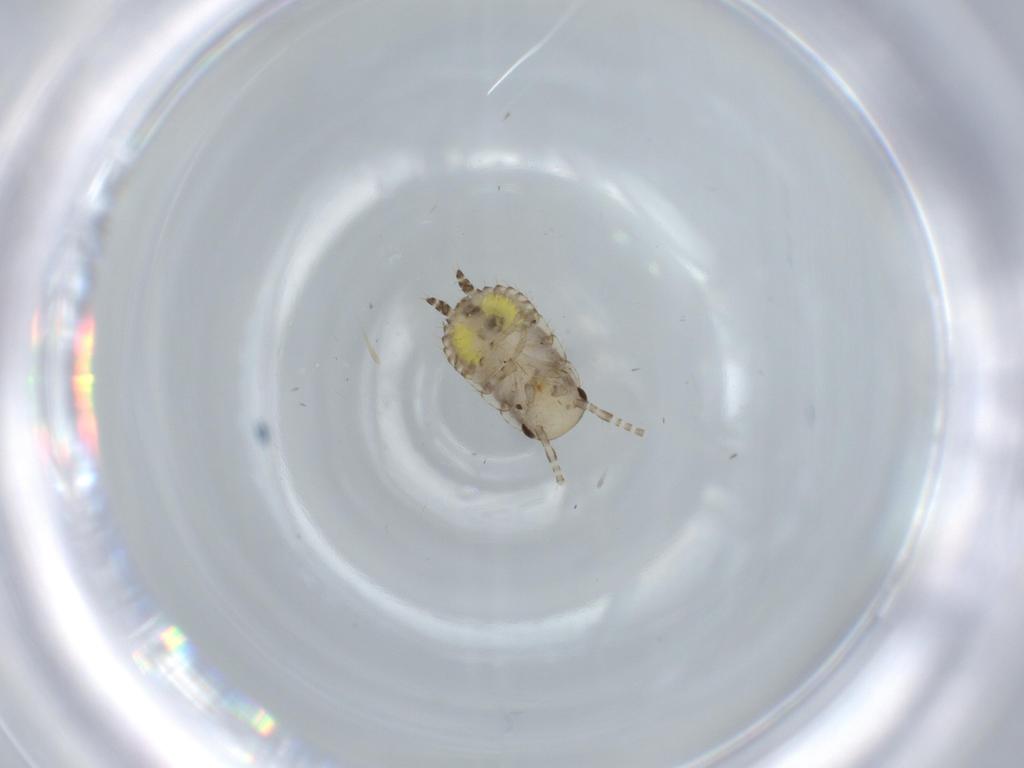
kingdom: Animalia
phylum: Arthropoda
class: Insecta
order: Blattodea
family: Ectobiidae
